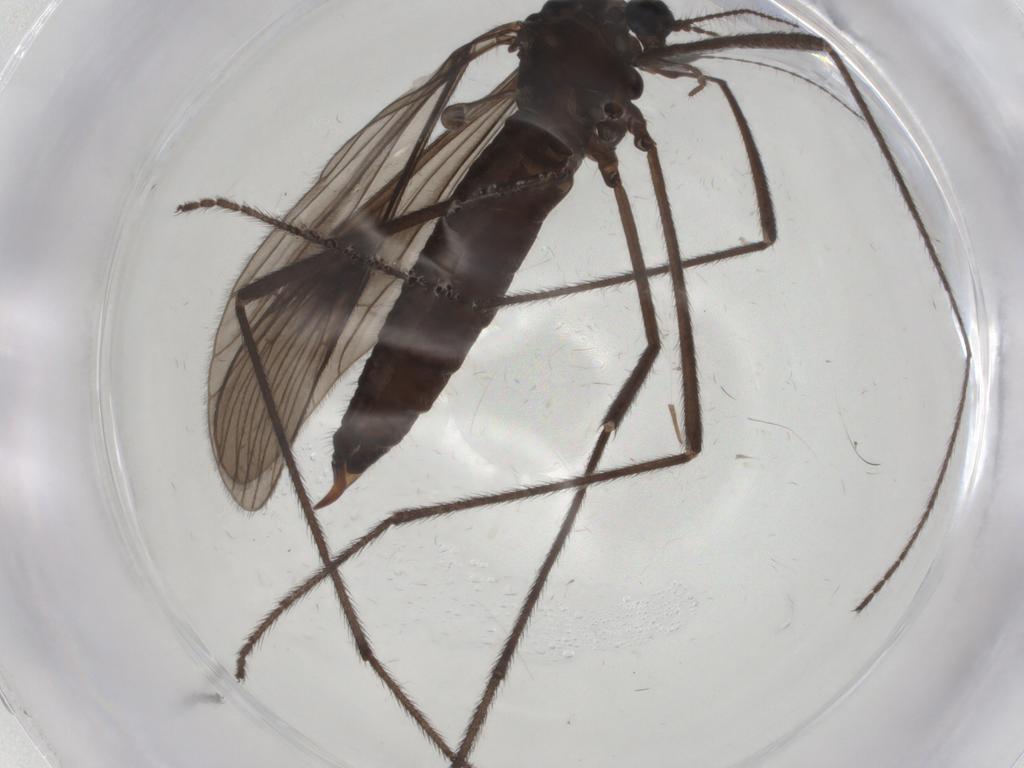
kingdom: Animalia
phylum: Arthropoda
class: Insecta
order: Diptera
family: Limoniidae
